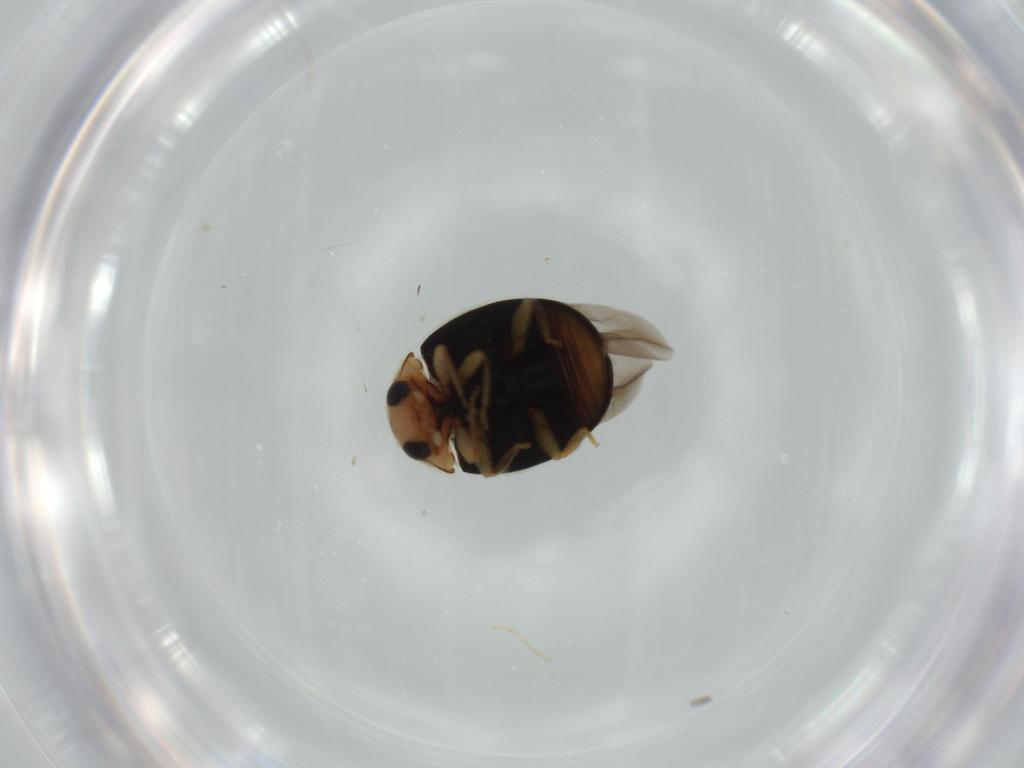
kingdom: Animalia
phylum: Arthropoda
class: Insecta
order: Coleoptera
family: Coccinellidae
